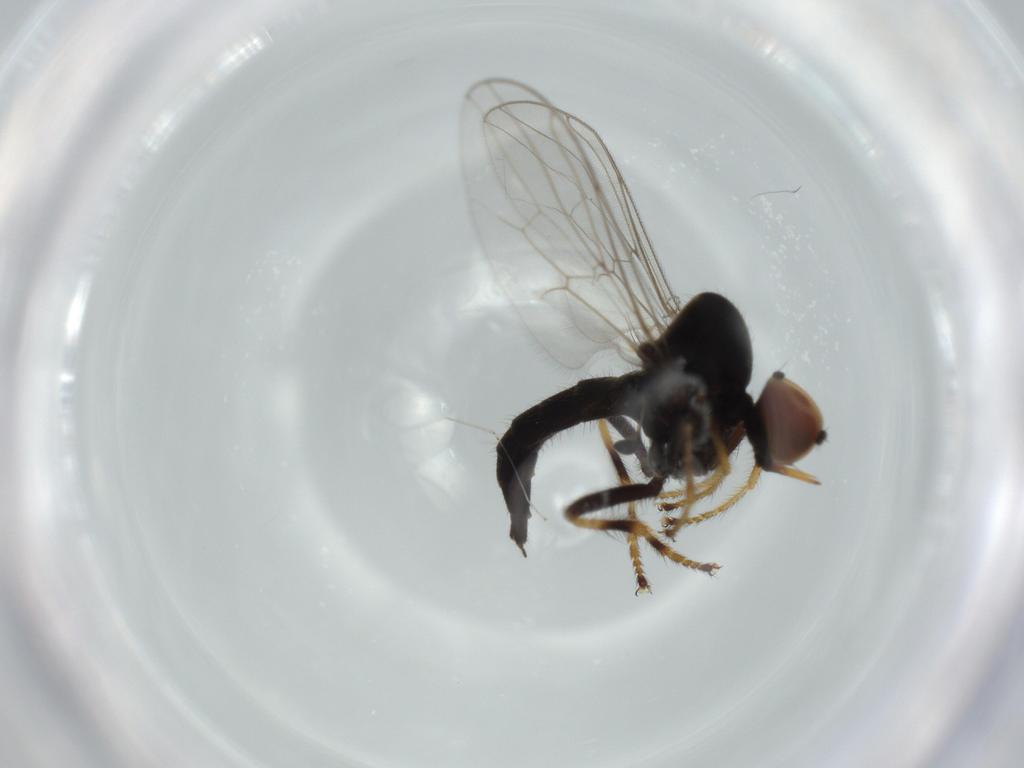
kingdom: Animalia
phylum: Arthropoda
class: Insecta
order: Diptera
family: Hybotidae
